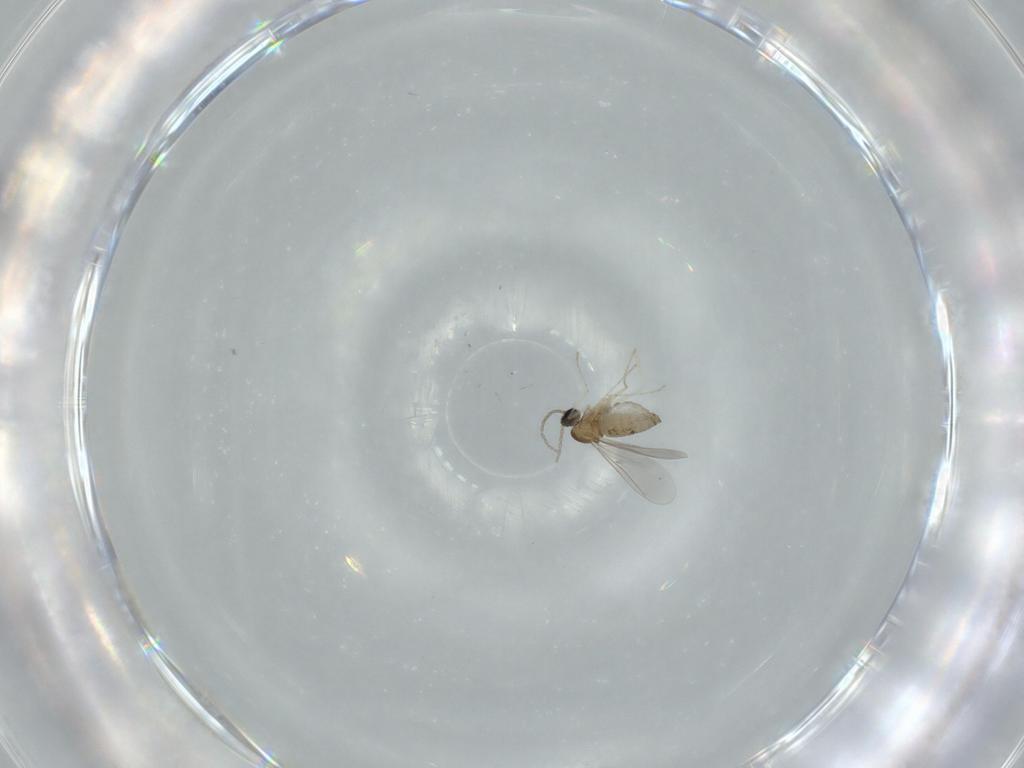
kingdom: Animalia
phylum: Arthropoda
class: Insecta
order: Diptera
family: Cecidomyiidae
